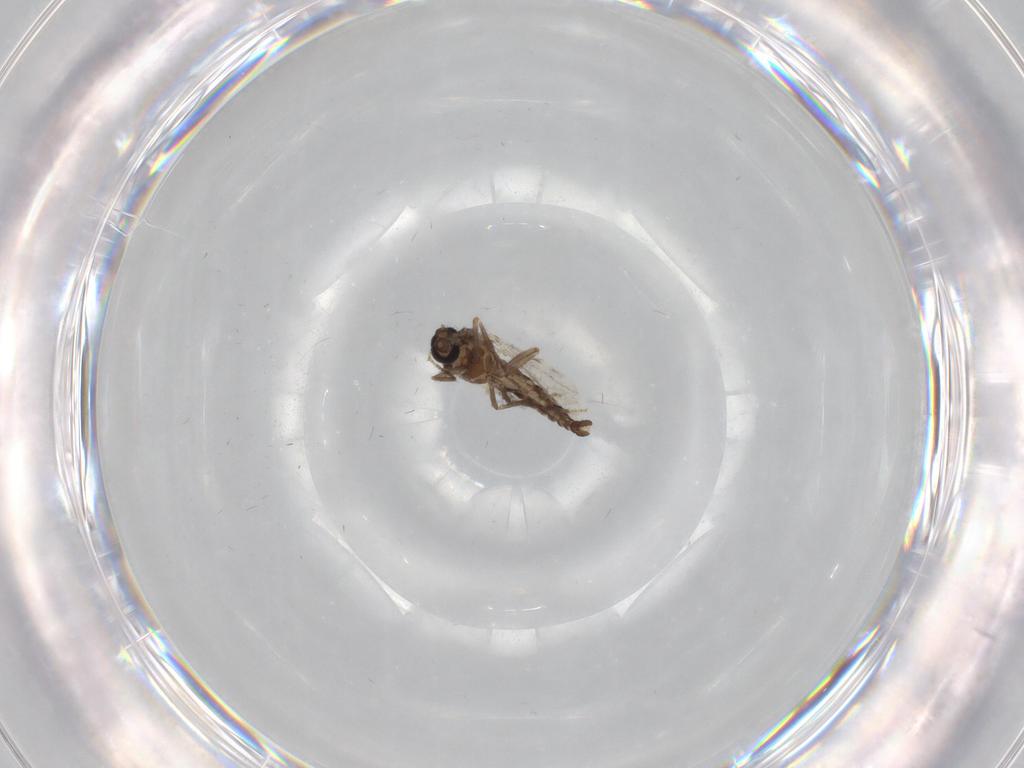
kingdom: Animalia
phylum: Arthropoda
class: Insecta
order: Diptera
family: Ceratopogonidae
